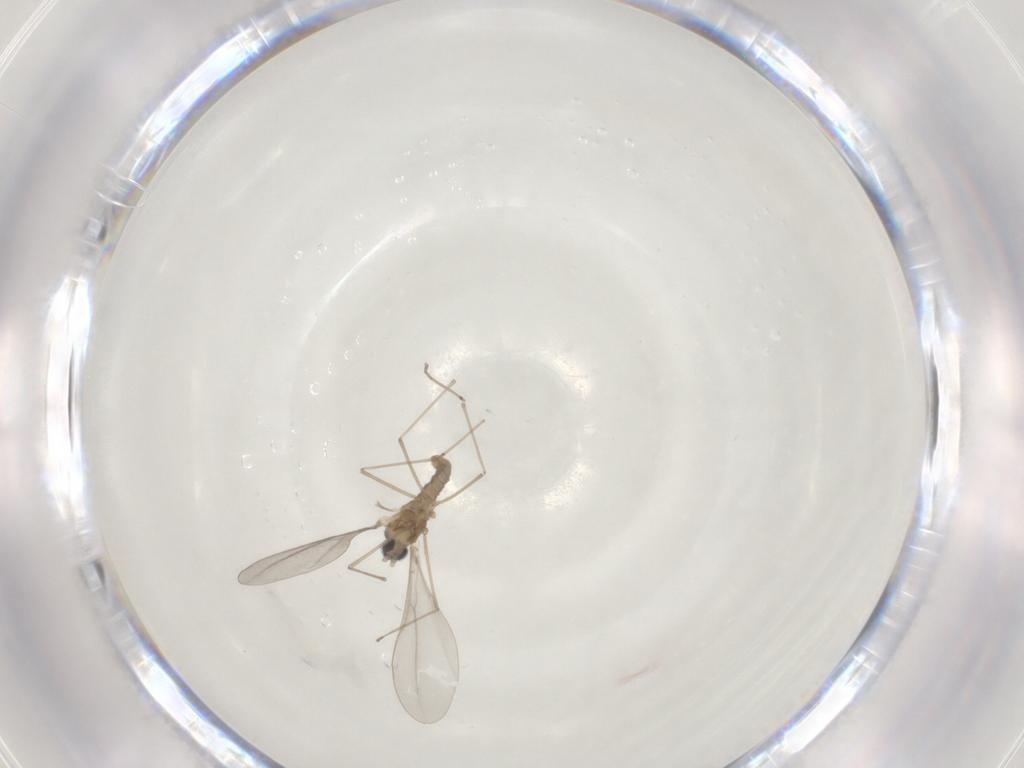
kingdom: Animalia
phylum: Arthropoda
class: Insecta
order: Diptera
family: Cecidomyiidae
